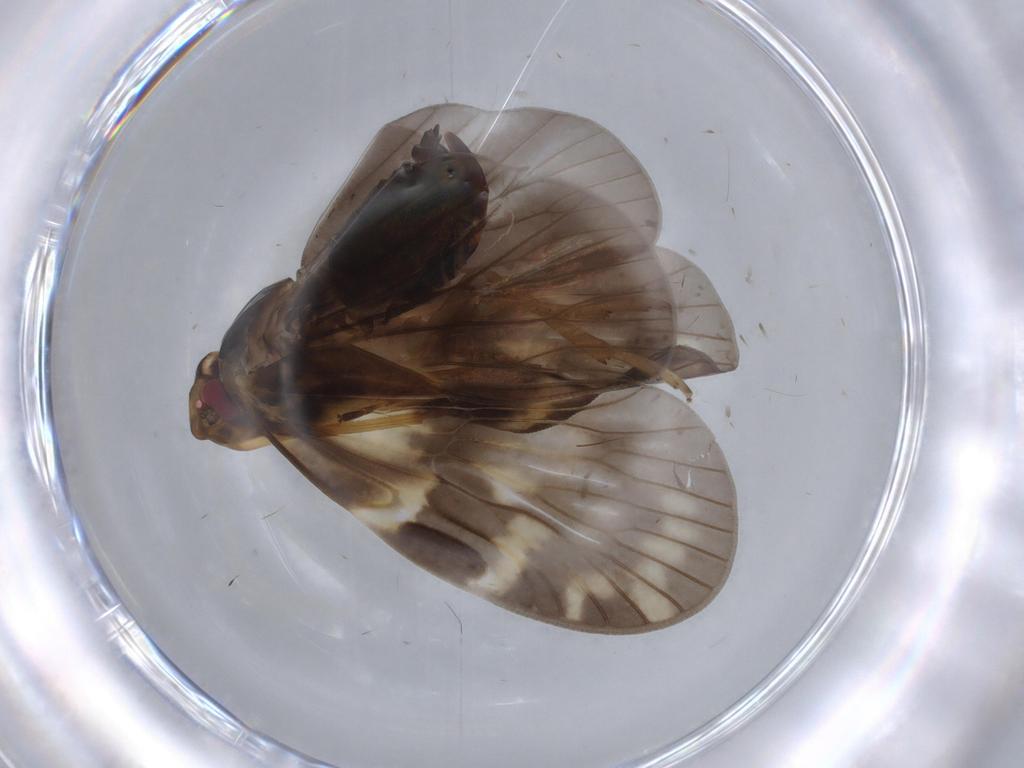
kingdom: Animalia
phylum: Arthropoda
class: Insecta
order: Hemiptera
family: Cixiidae
